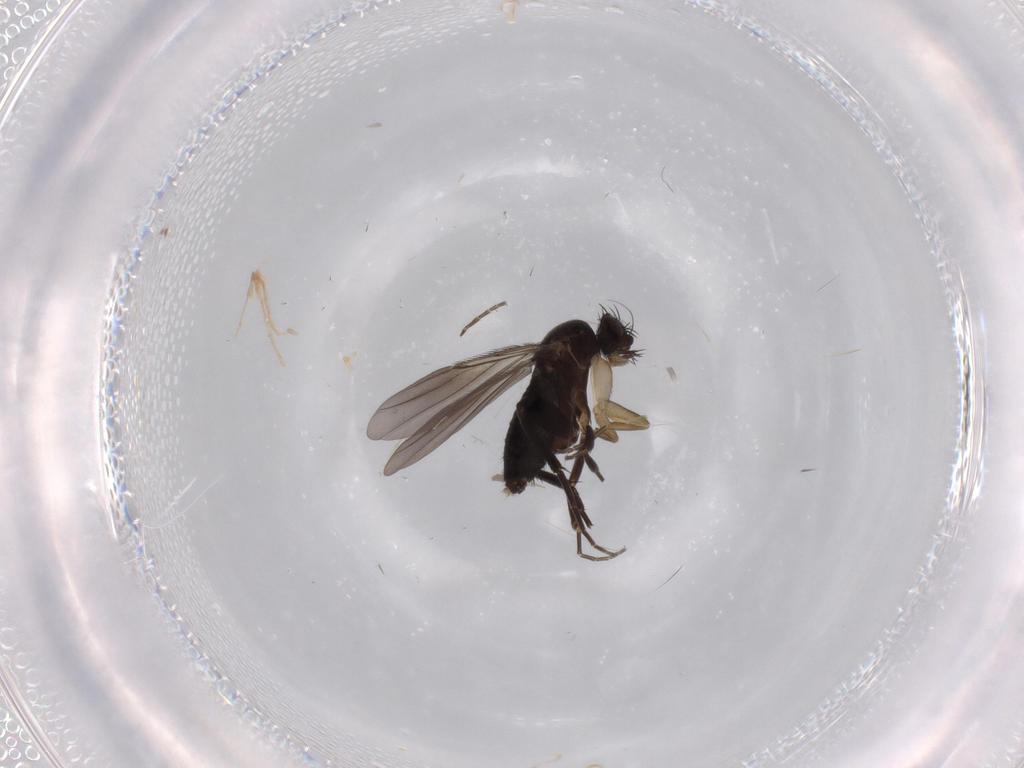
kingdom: Animalia
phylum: Arthropoda
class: Insecta
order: Diptera
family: Phoridae
